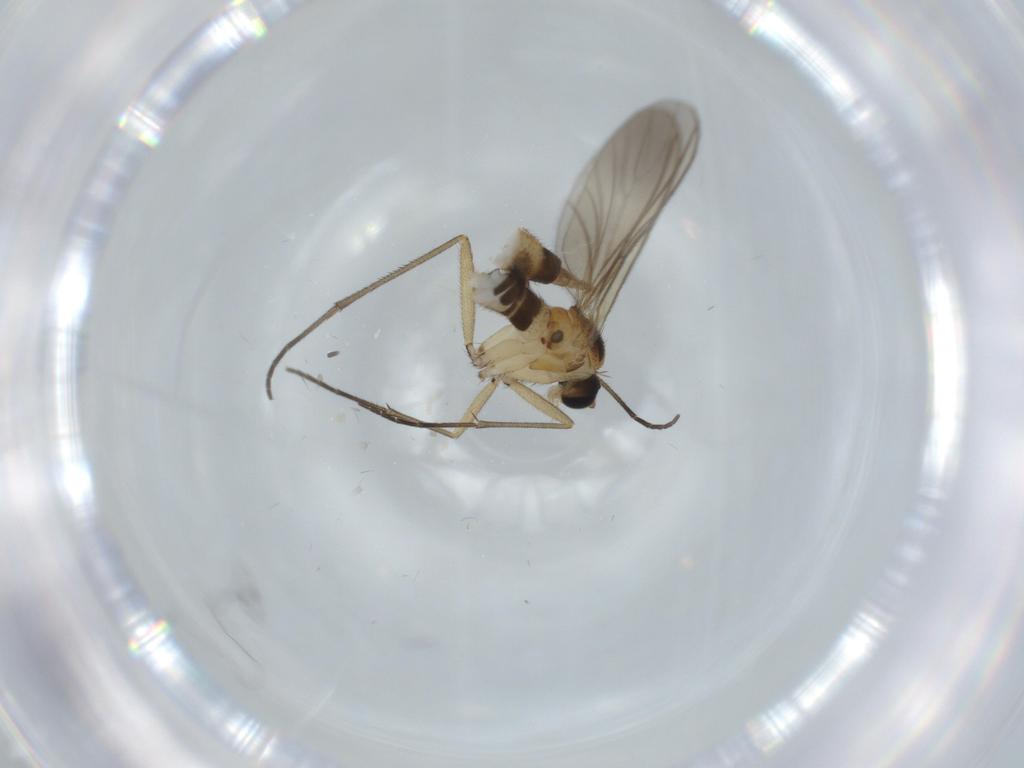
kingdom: Animalia
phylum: Arthropoda
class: Insecta
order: Diptera
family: Sciaridae
